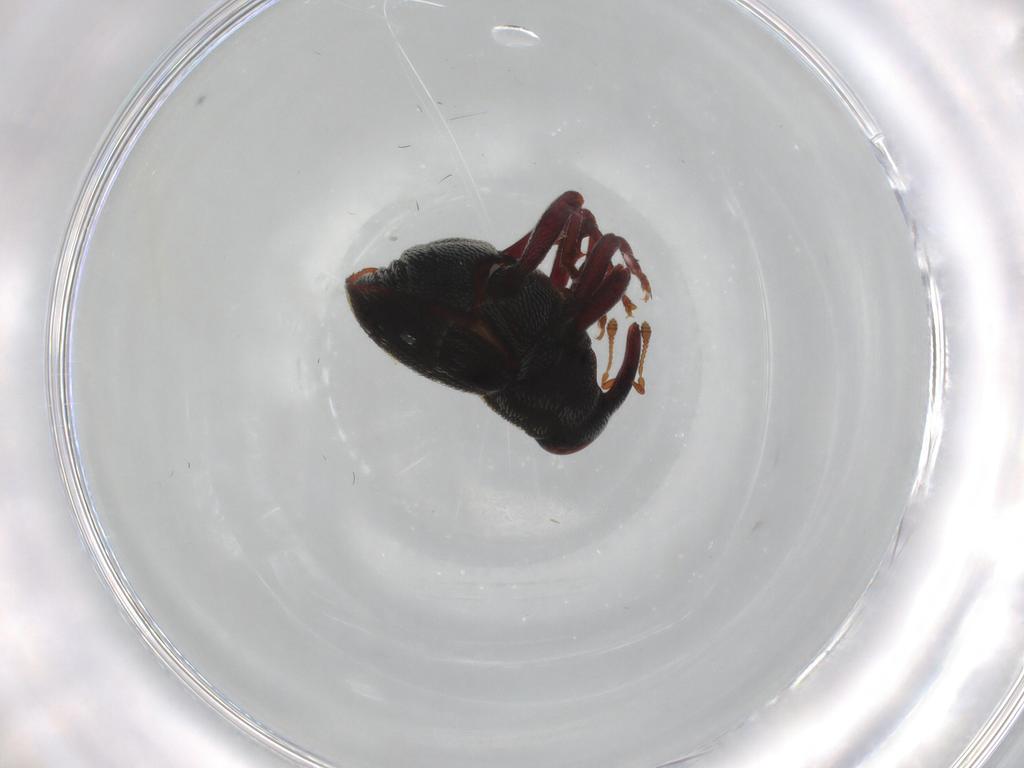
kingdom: Animalia
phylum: Arthropoda
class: Insecta
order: Coleoptera
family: Curculionidae
